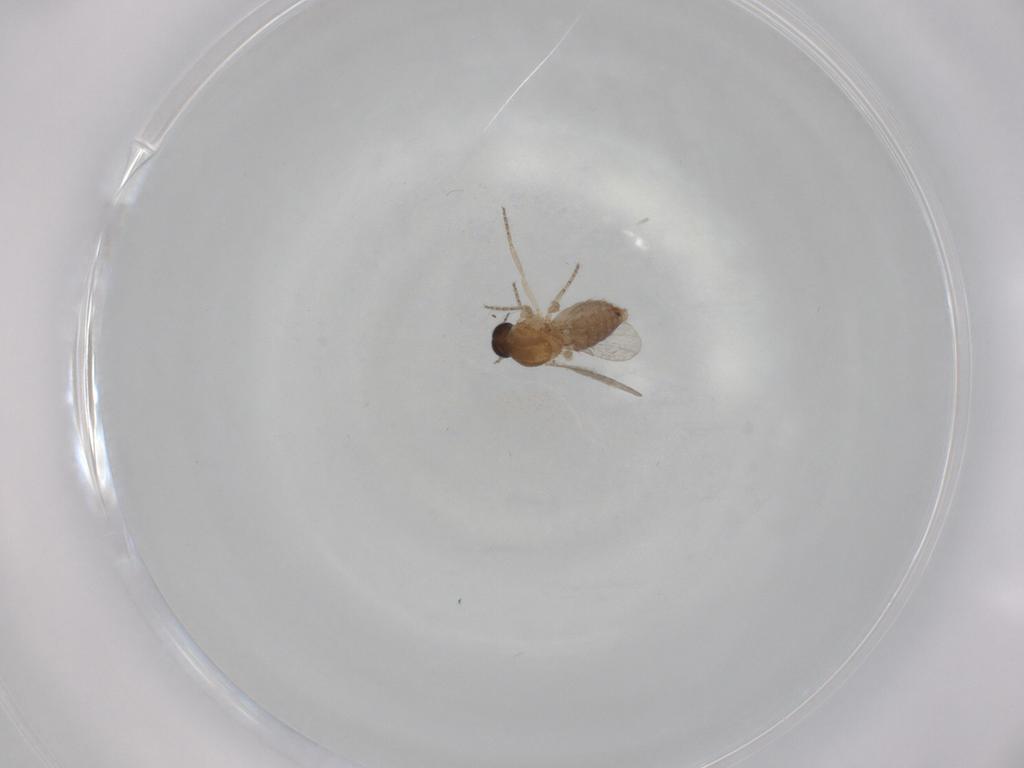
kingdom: Animalia
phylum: Arthropoda
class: Insecta
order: Diptera
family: Ceratopogonidae
